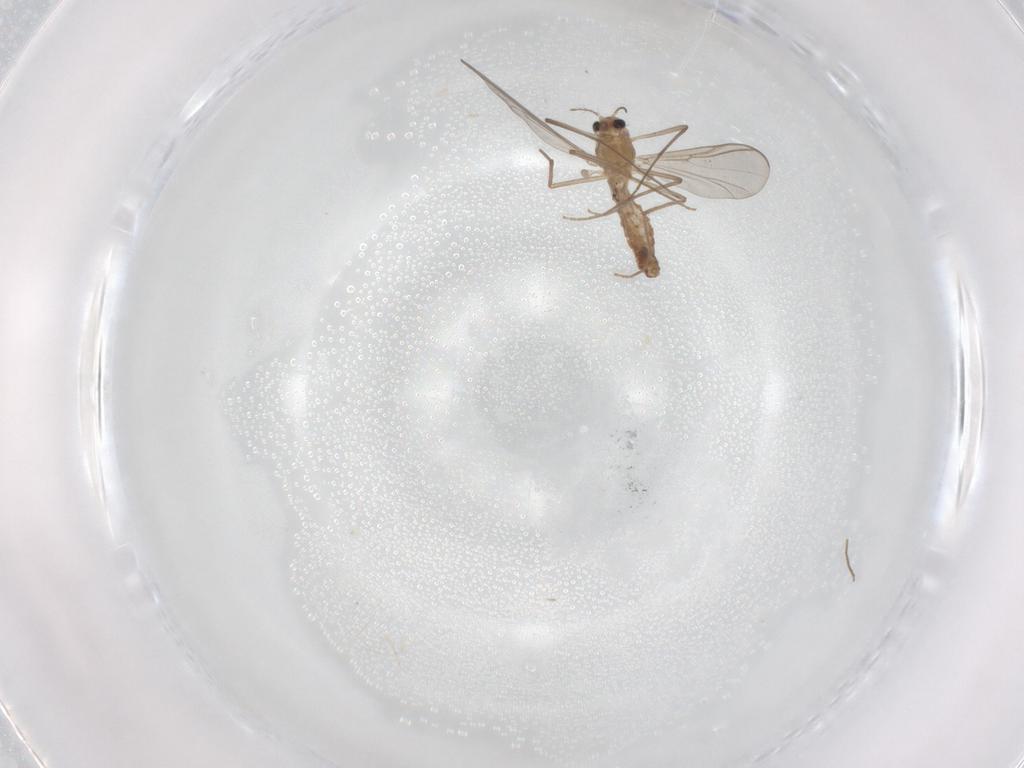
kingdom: Animalia
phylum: Arthropoda
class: Insecta
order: Diptera
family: Chironomidae
